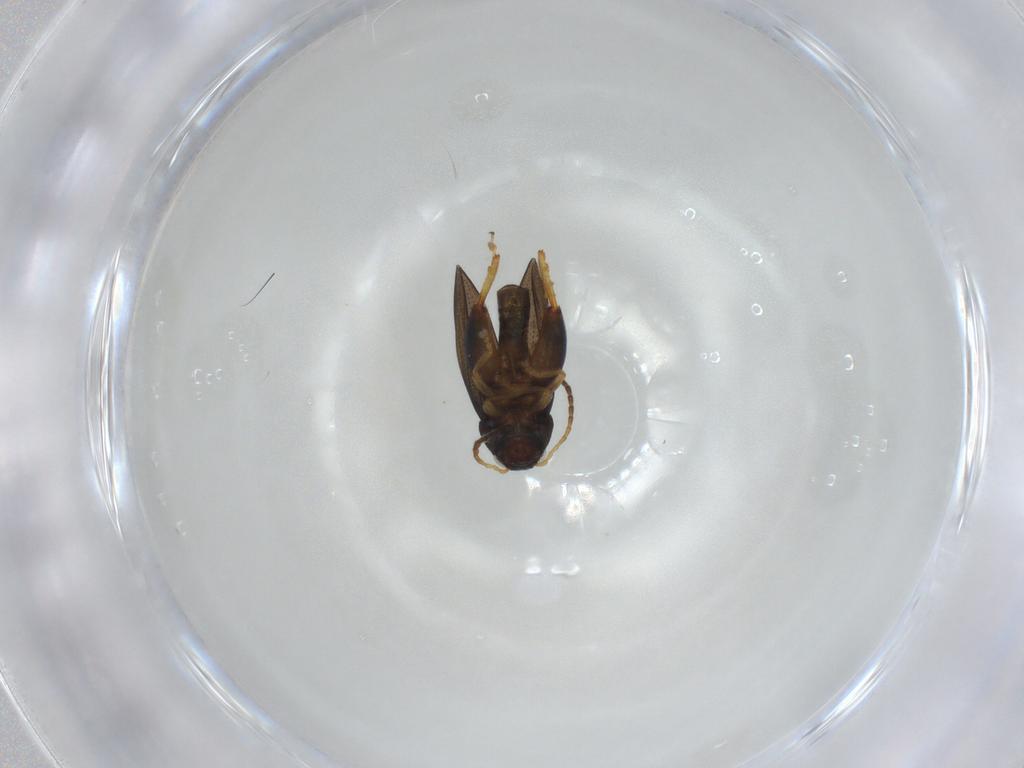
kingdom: Animalia
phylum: Arthropoda
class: Insecta
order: Coleoptera
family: Chrysomelidae
